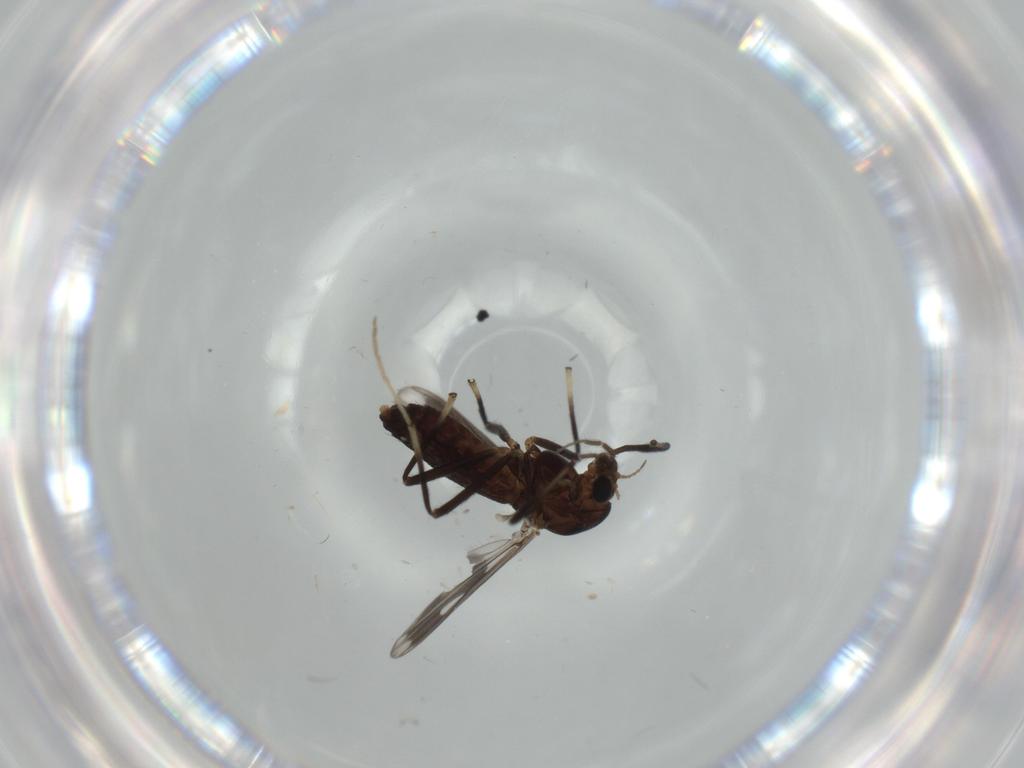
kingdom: Animalia
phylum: Arthropoda
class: Insecta
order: Diptera
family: Chironomidae
